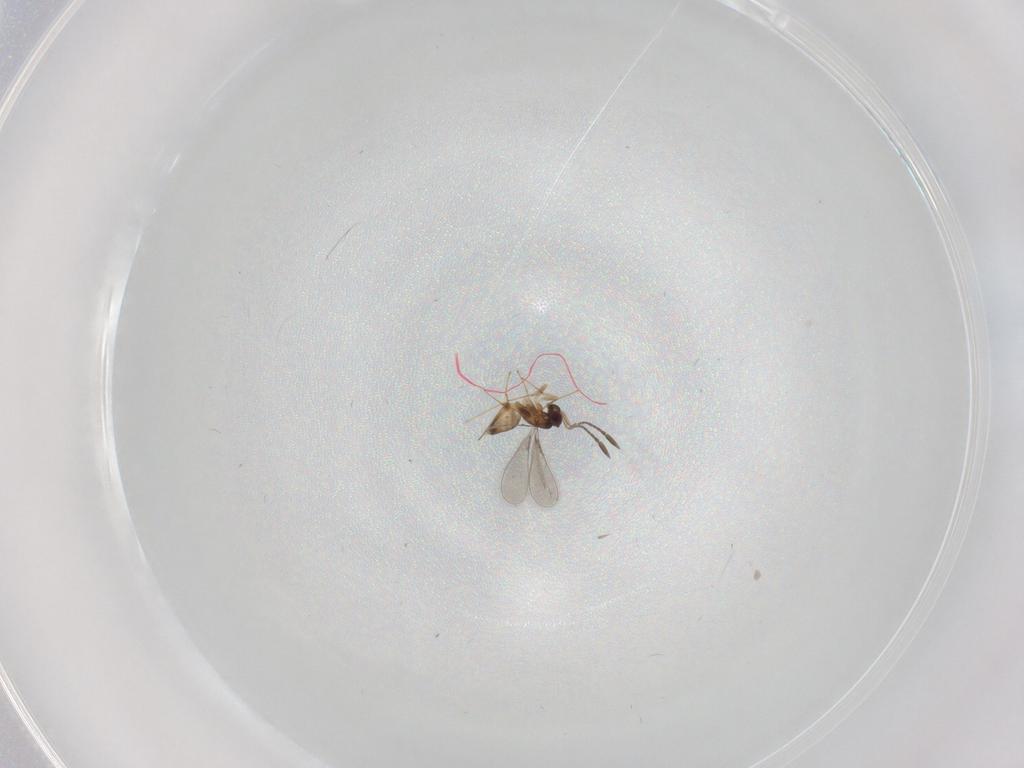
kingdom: Animalia
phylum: Arthropoda
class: Insecta
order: Hymenoptera
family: Mymaridae
